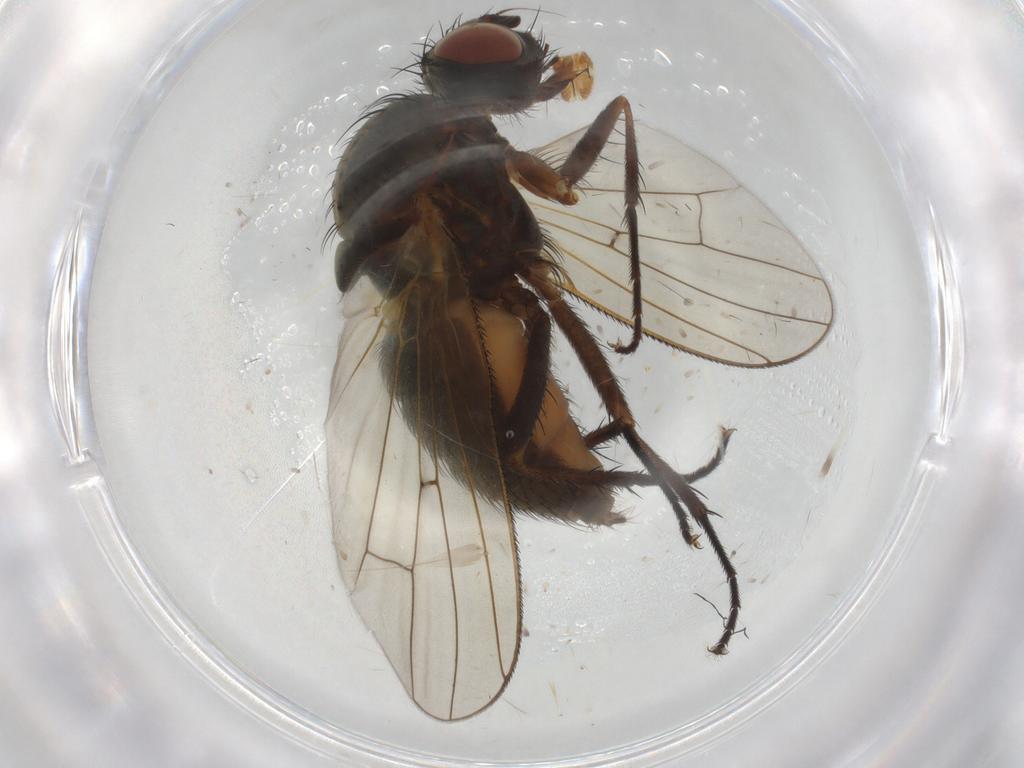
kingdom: Animalia
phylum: Arthropoda
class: Insecta
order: Diptera
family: Anthomyiidae
